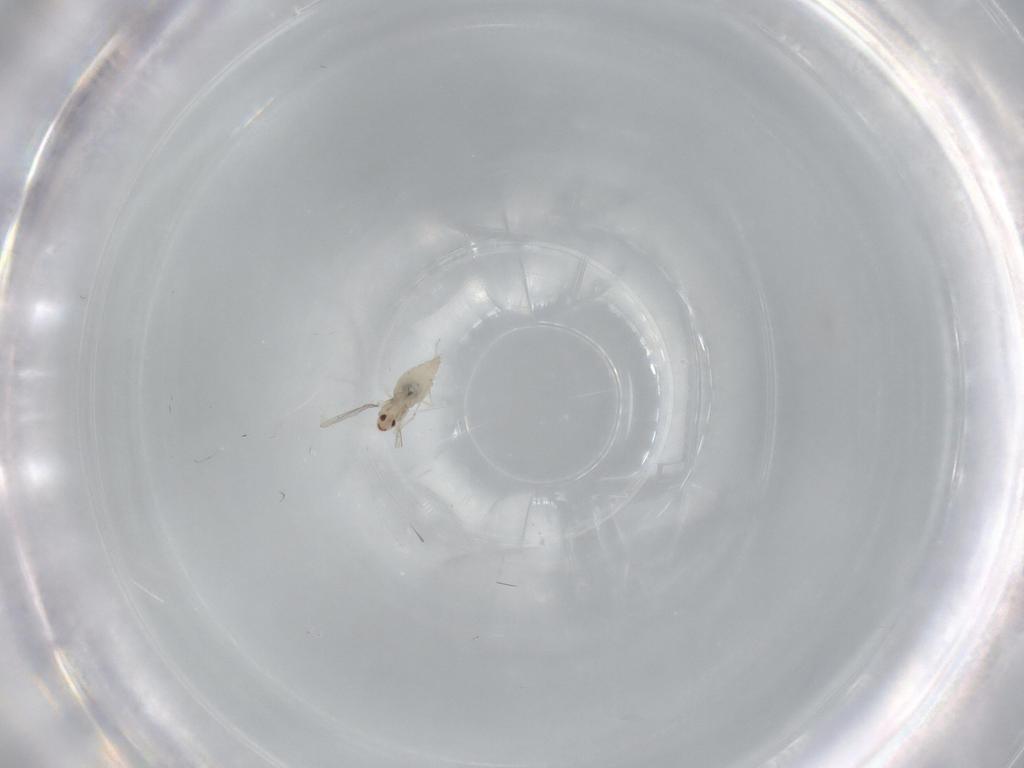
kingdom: Animalia
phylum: Arthropoda
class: Insecta
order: Diptera
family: Cecidomyiidae
